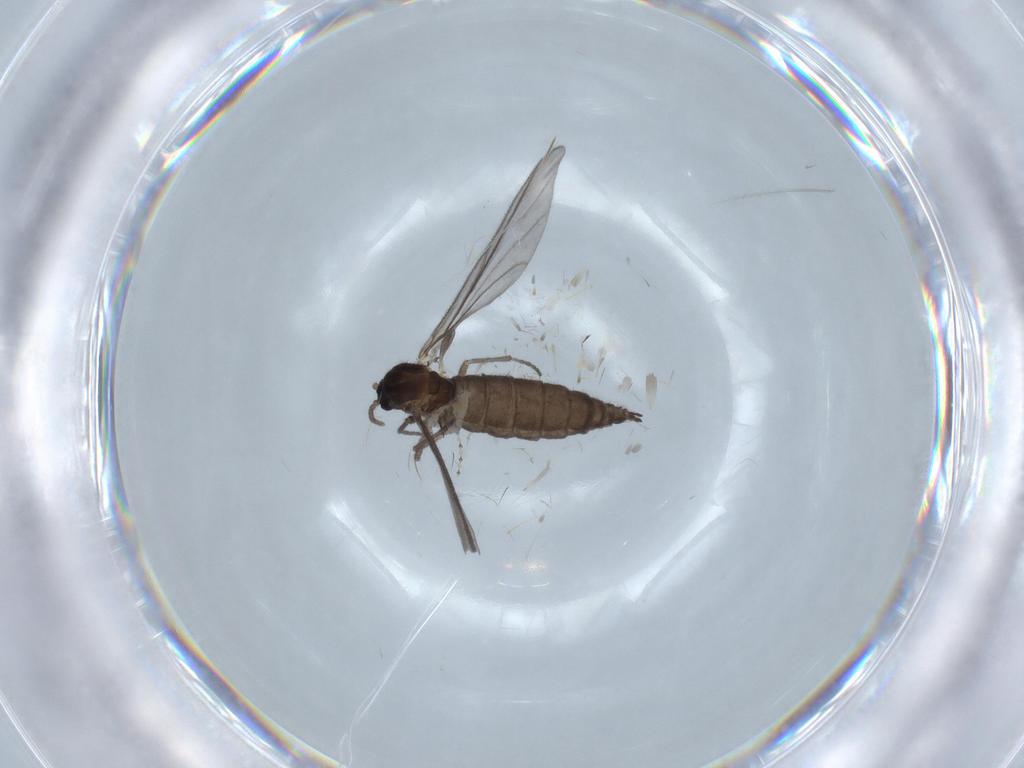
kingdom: Animalia
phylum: Arthropoda
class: Insecta
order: Diptera
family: Sciaridae
